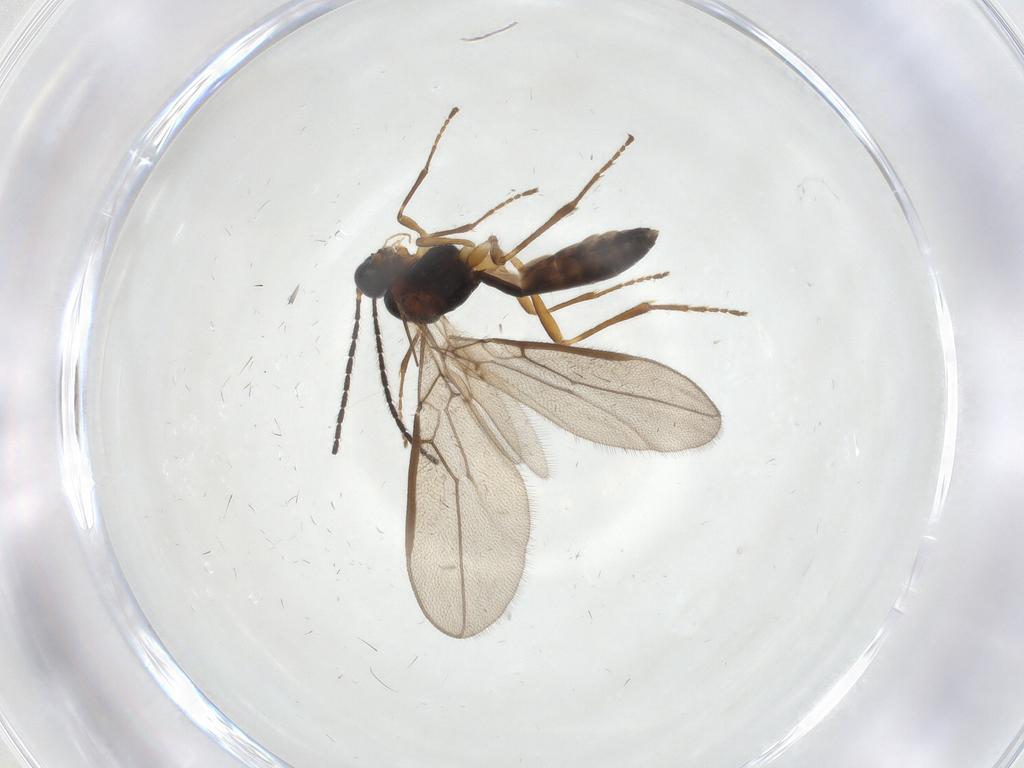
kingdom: Animalia
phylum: Arthropoda
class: Insecta
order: Hymenoptera
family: Braconidae
